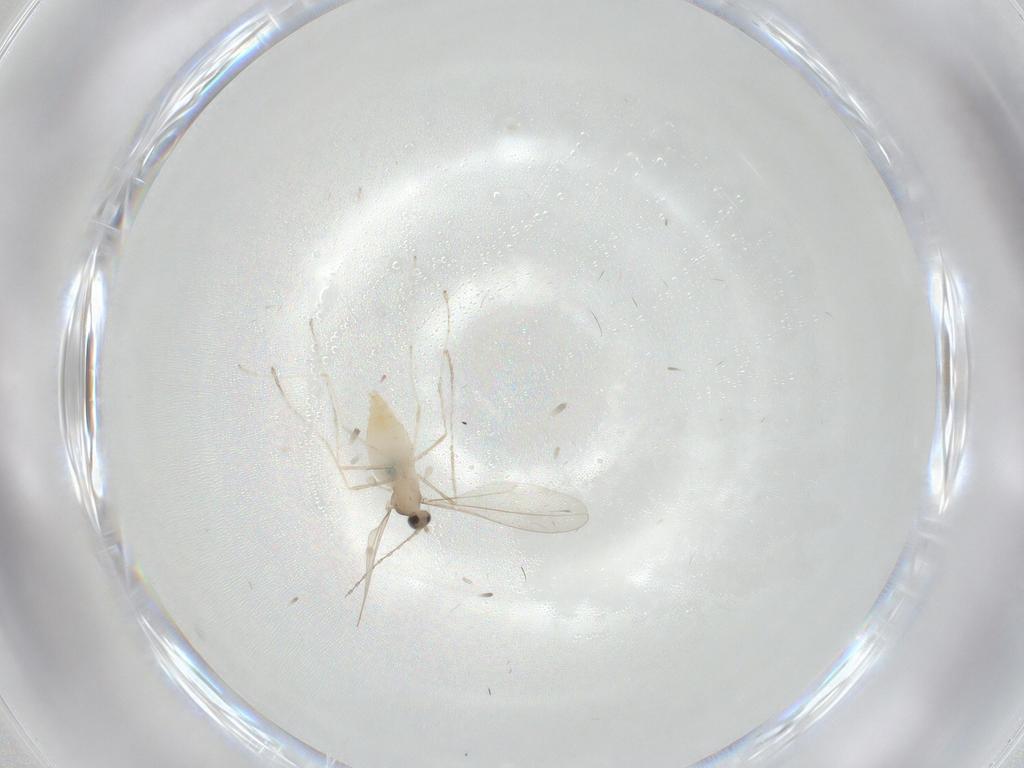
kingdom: Animalia
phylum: Arthropoda
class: Insecta
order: Diptera
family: Cecidomyiidae
